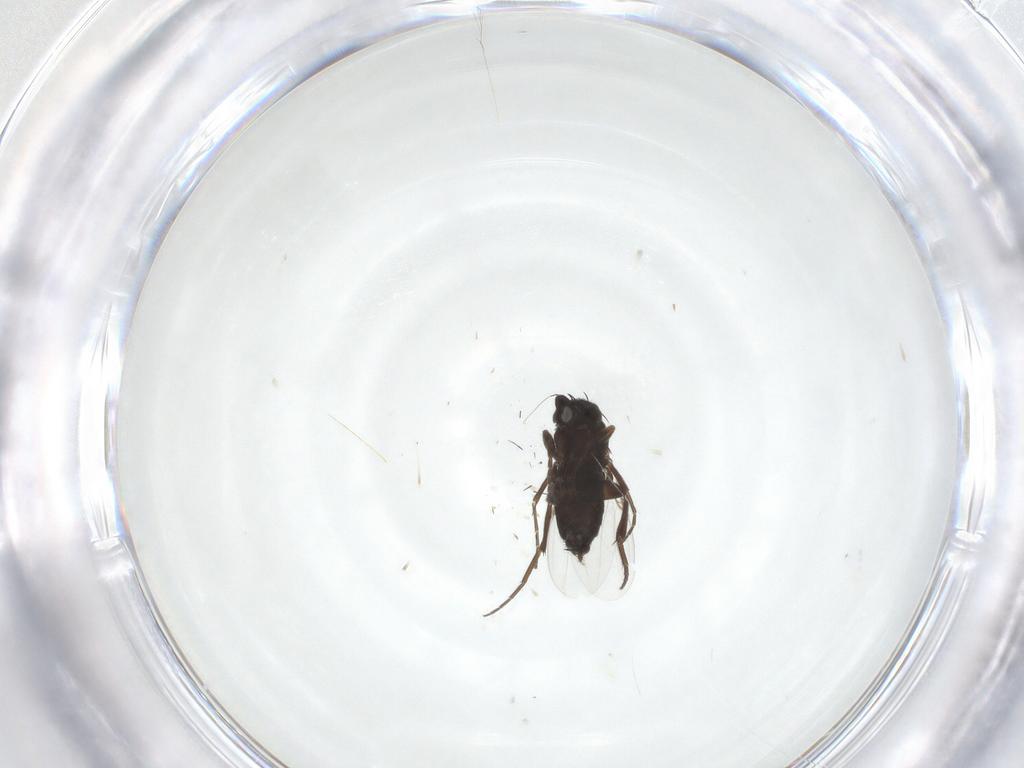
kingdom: Animalia
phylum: Arthropoda
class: Insecta
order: Diptera
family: Phoridae
